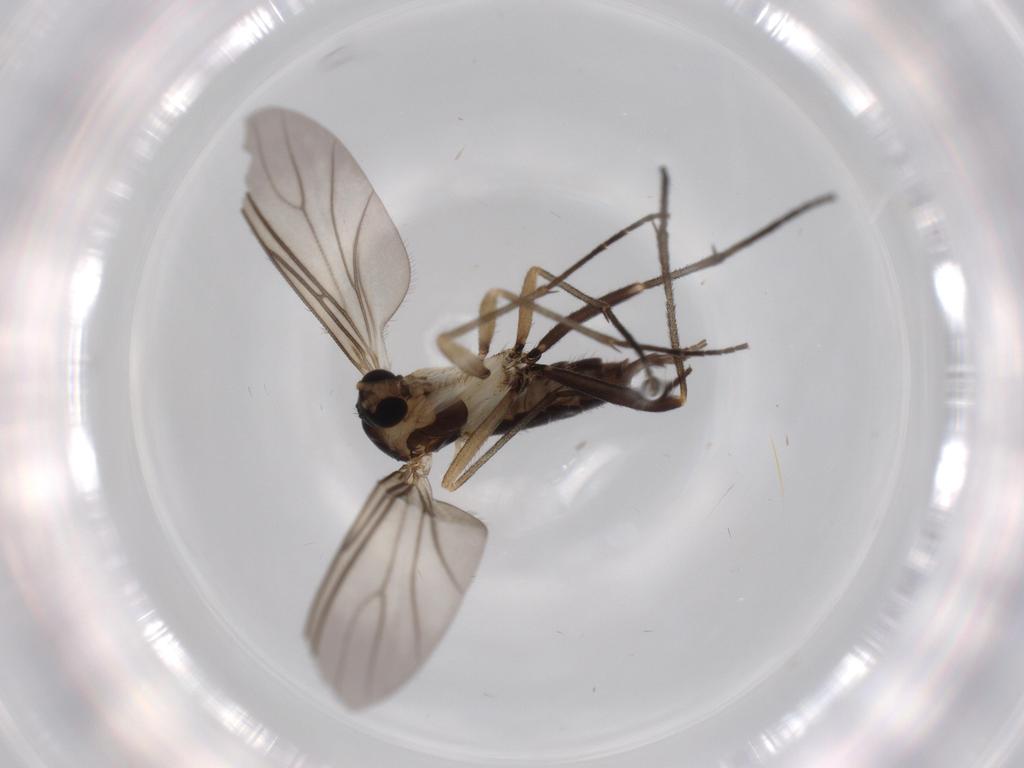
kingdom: Animalia
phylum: Arthropoda
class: Insecta
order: Diptera
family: Sciaridae
